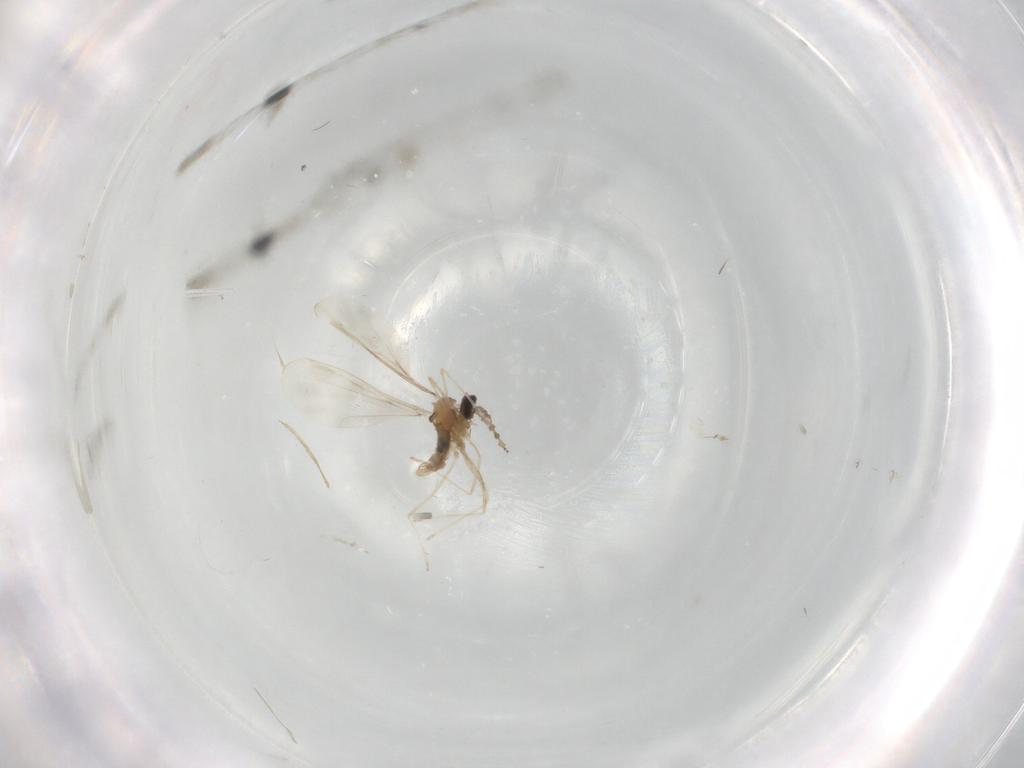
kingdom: Animalia
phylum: Arthropoda
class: Insecta
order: Diptera
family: Cecidomyiidae
